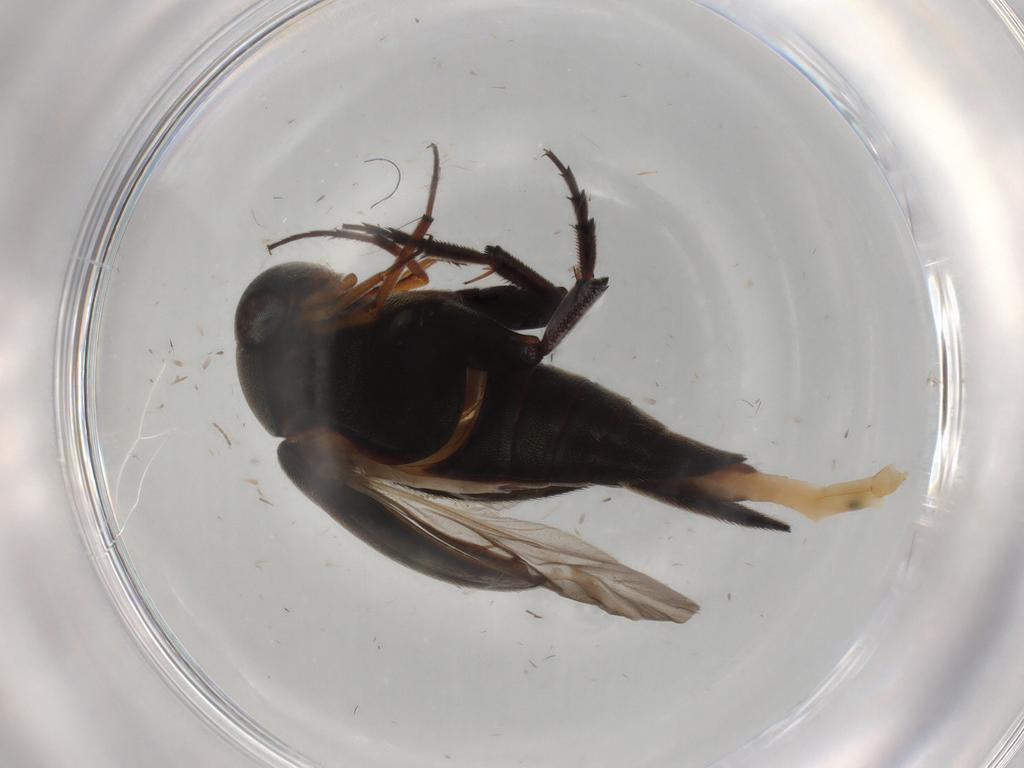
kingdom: Animalia
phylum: Arthropoda
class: Insecta
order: Coleoptera
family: Mordellidae
